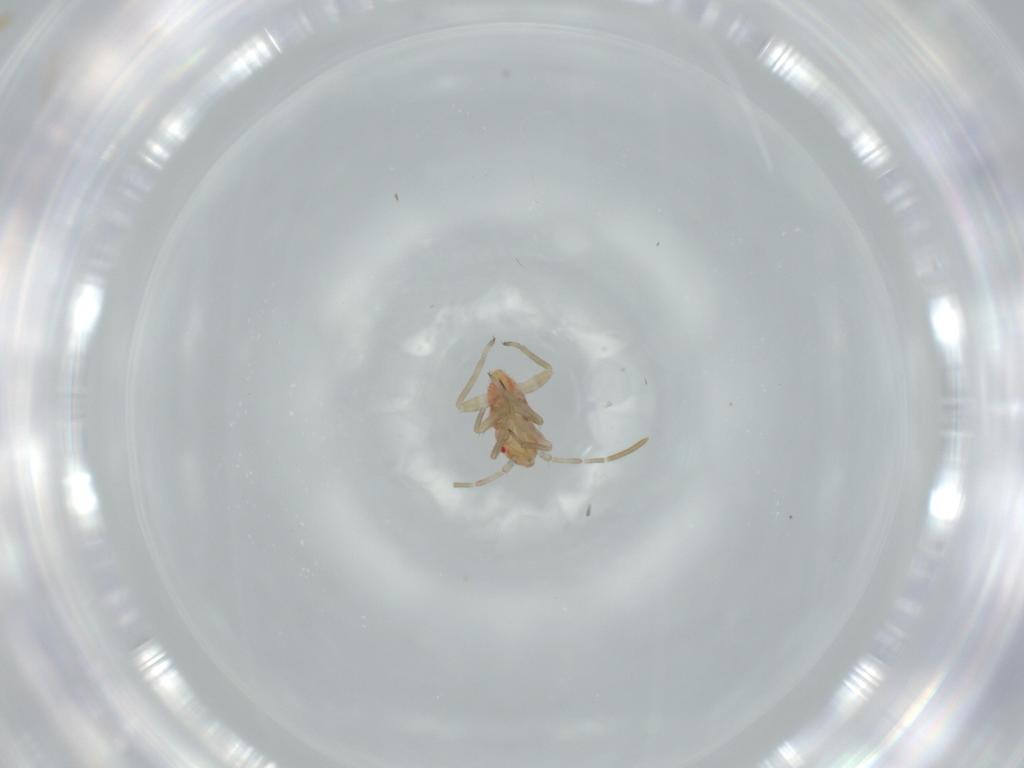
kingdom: Animalia
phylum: Arthropoda
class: Insecta
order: Hemiptera
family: Miridae
